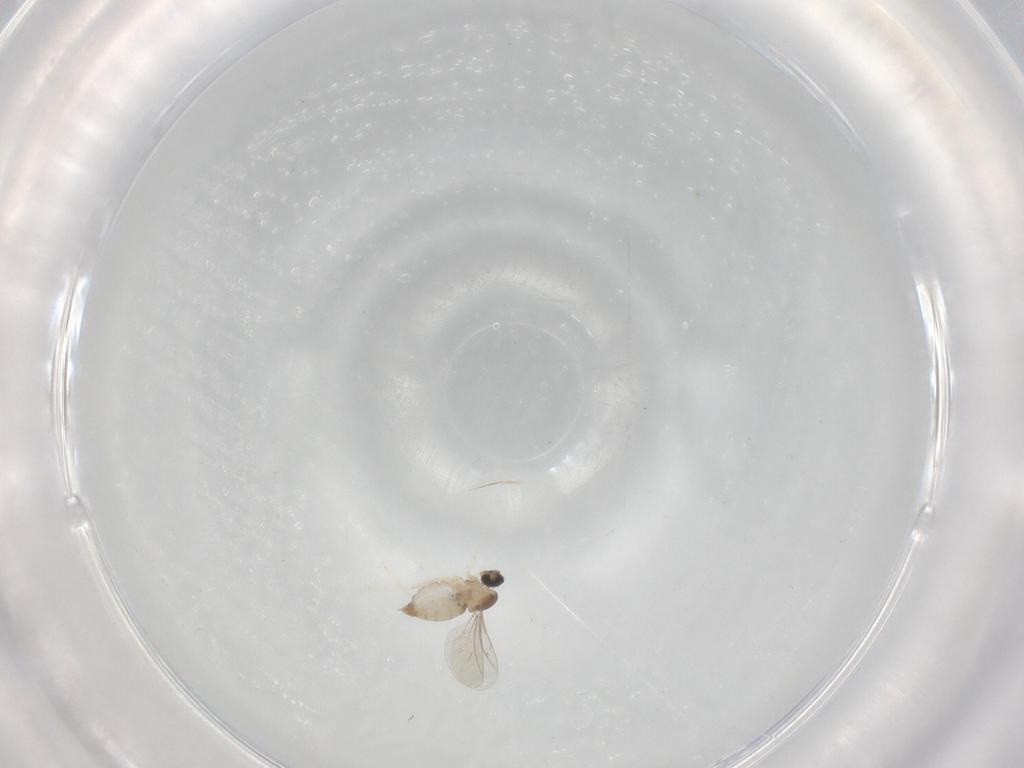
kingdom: Animalia
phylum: Arthropoda
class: Insecta
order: Diptera
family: Cecidomyiidae
